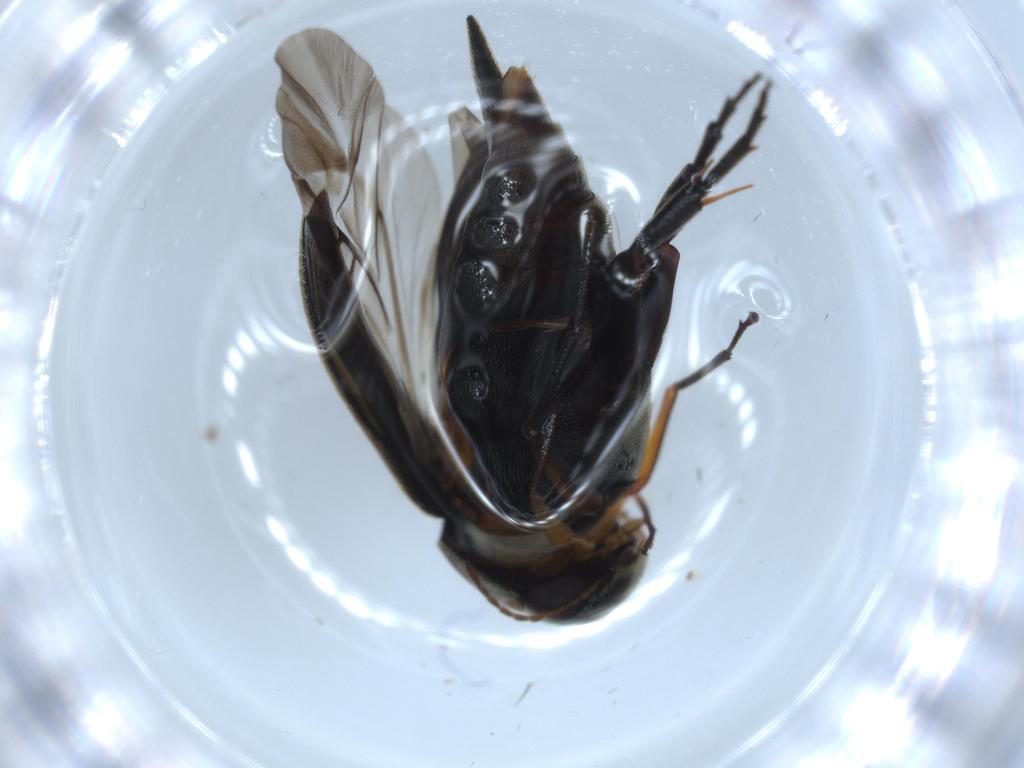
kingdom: Animalia
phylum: Arthropoda
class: Insecta
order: Coleoptera
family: Mordellidae
